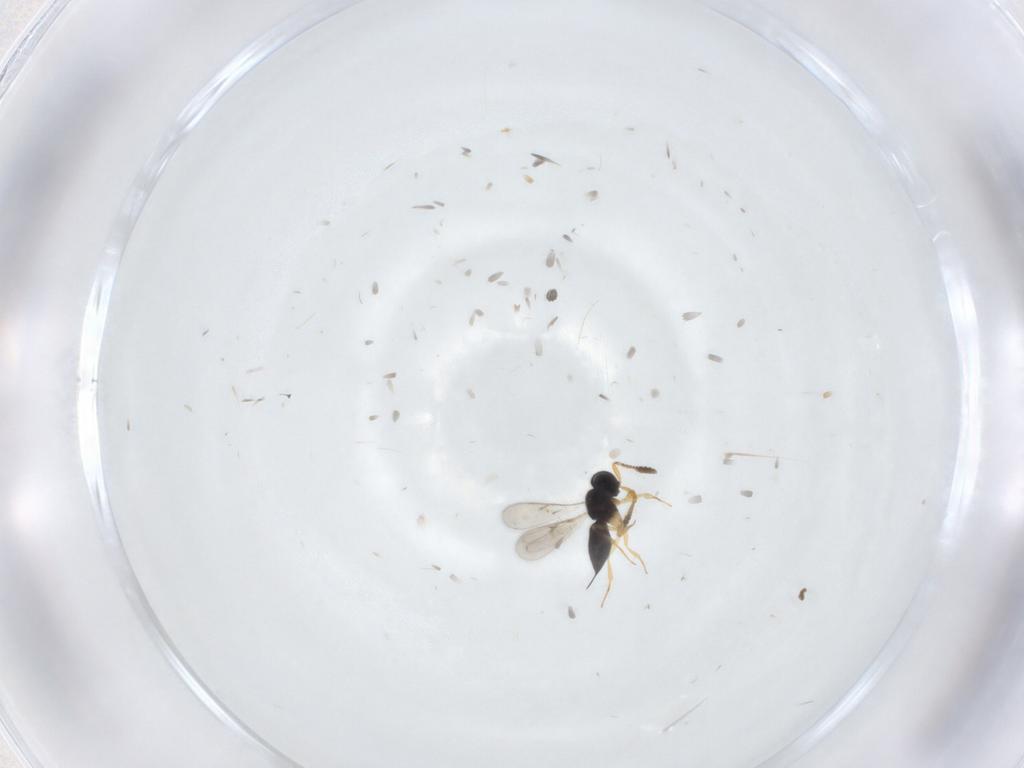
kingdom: Animalia
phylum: Arthropoda
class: Insecta
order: Hymenoptera
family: Scelionidae
